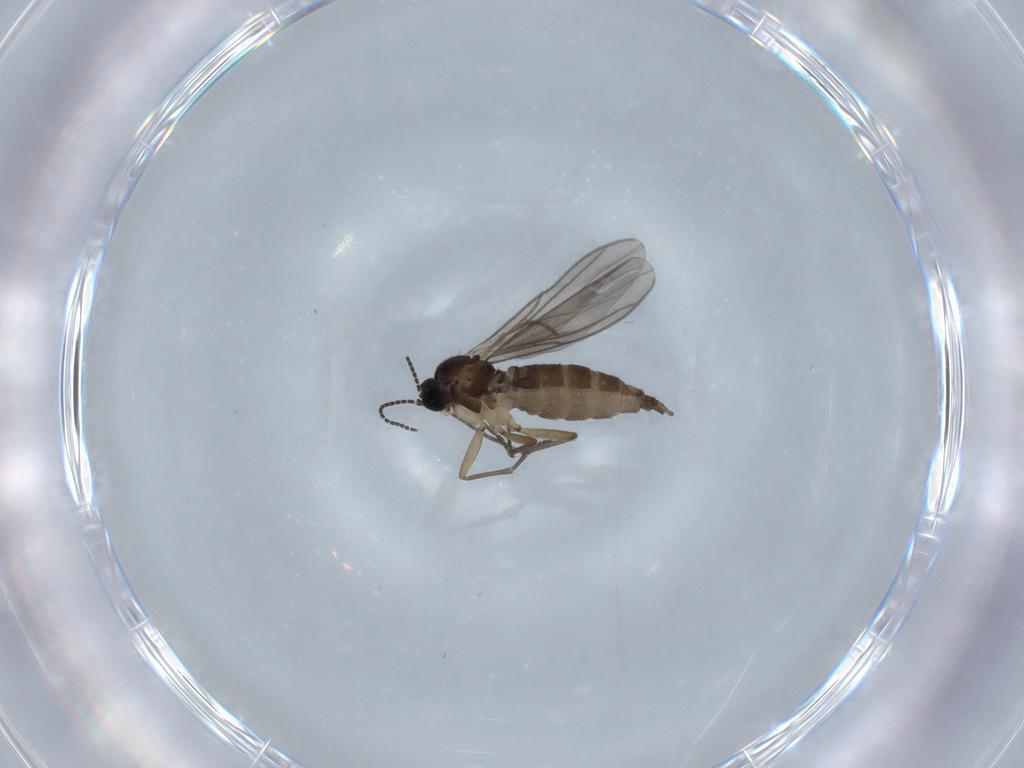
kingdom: Animalia
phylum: Arthropoda
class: Insecta
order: Diptera
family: Sciaridae
